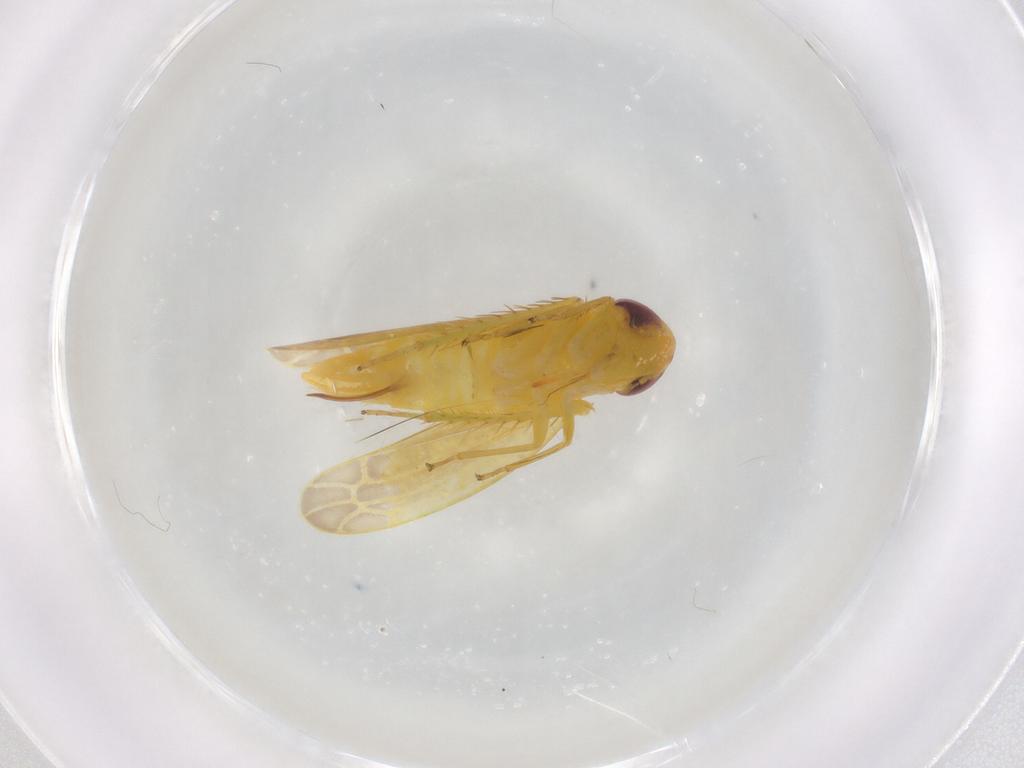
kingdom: Animalia
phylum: Arthropoda
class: Insecta
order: Hemiptera
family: Cicadellidae
